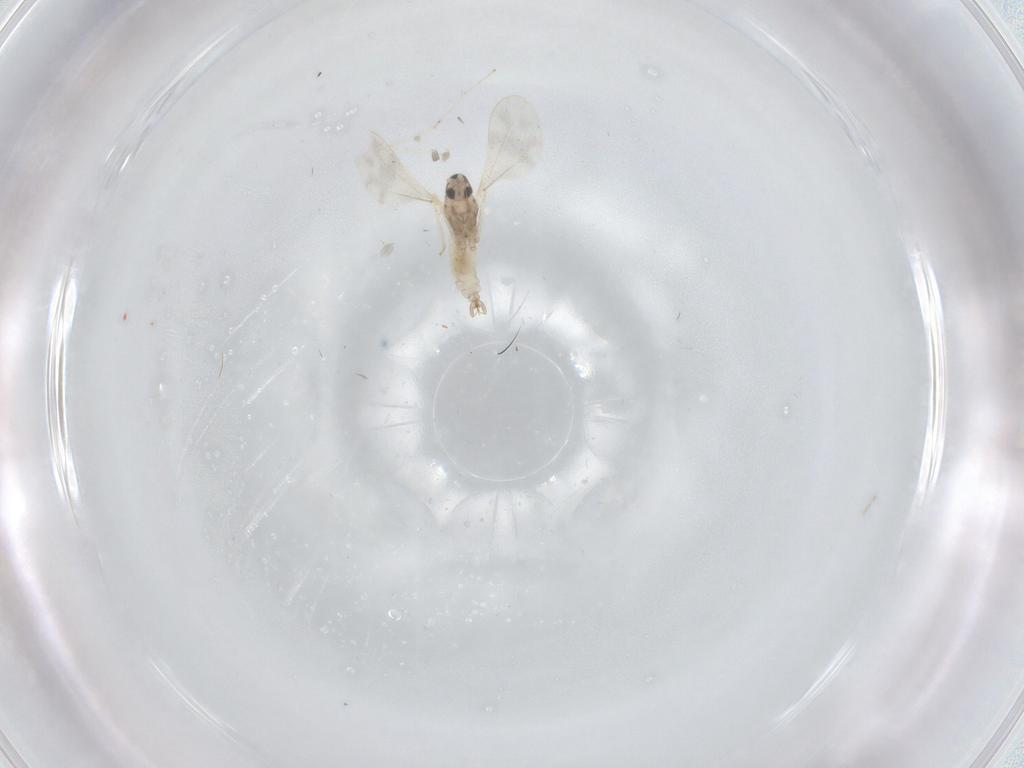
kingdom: Animalia
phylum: Arthropoda
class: Insecta
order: Diptera
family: Cecidomyiidae
